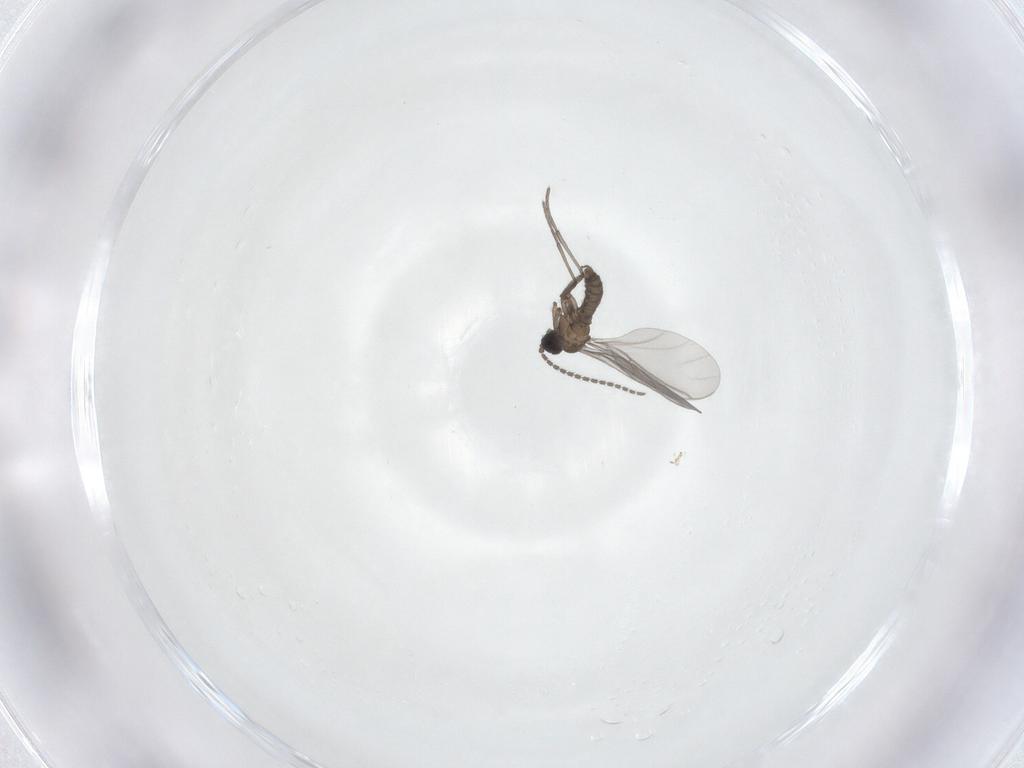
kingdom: Animalia
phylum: Arthropoda
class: Insecta
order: Diptera
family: Sciaridae
